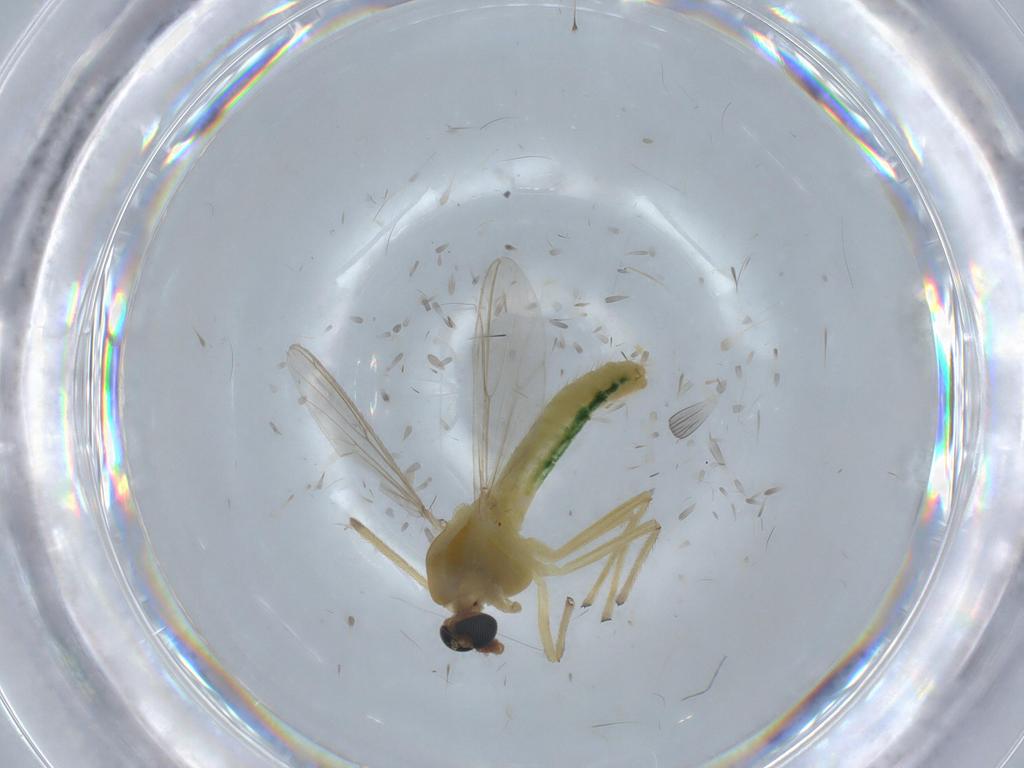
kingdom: Animalia
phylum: Arthropoda
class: Insecta
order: Diptera
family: Chironomidae
